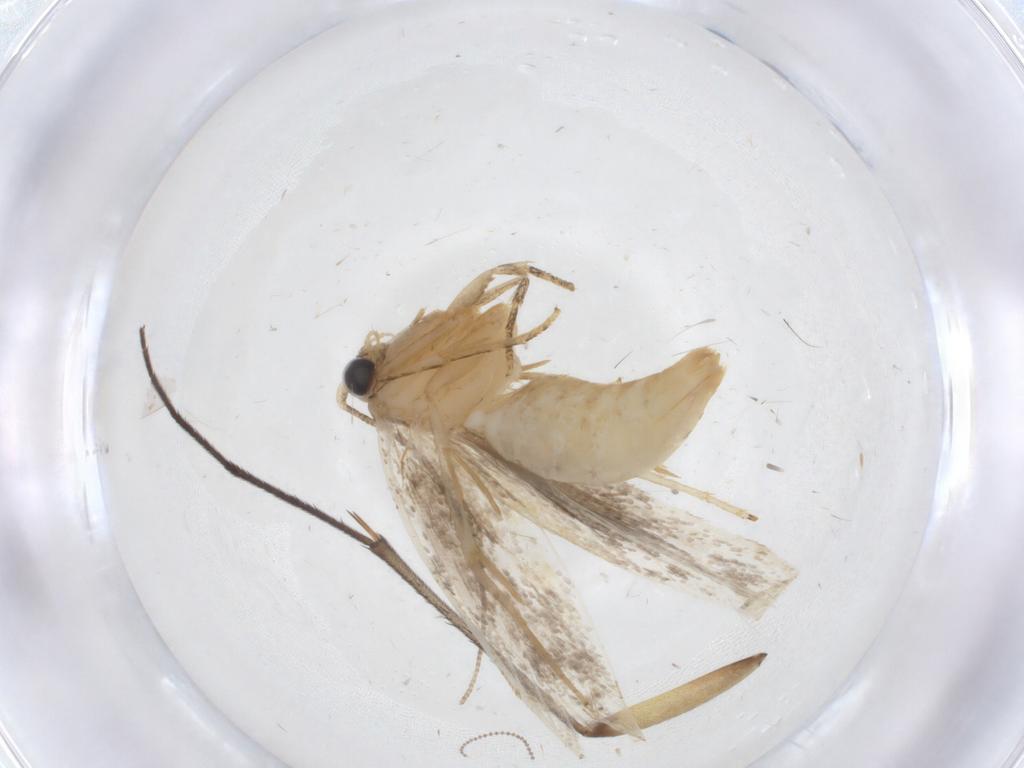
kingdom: Animalia
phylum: Arthropoda
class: Insecta
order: Lepidoptera
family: Tineidae
